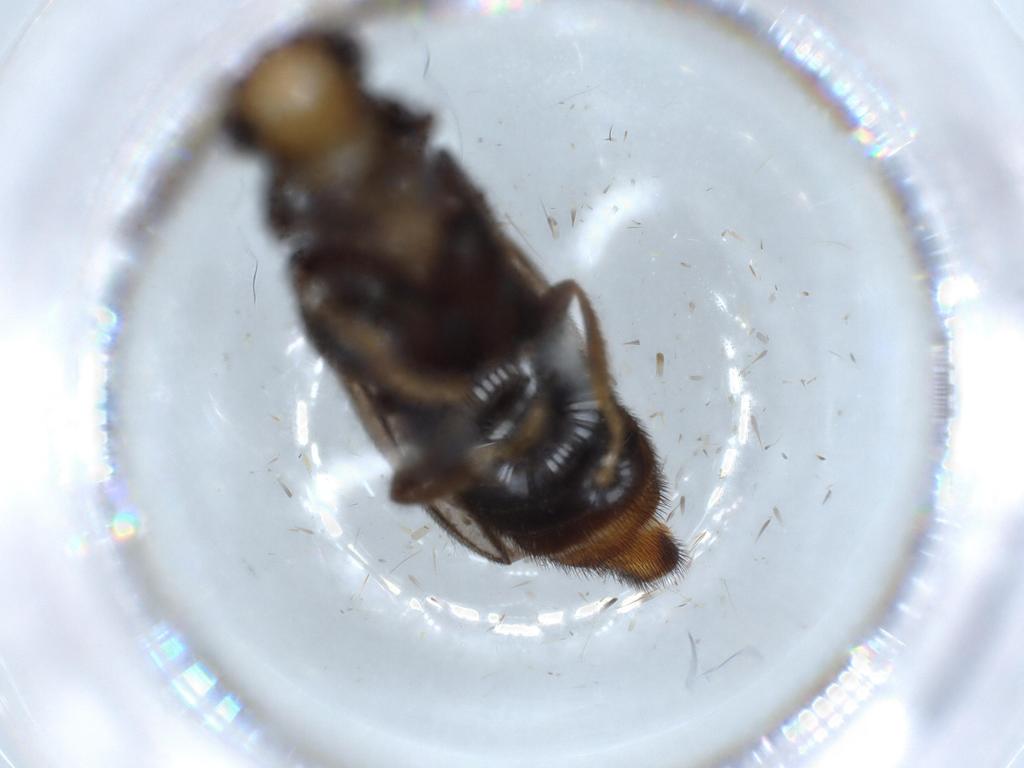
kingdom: Animalia
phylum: Arthropoda
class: Insecta
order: Coleoptera
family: Phengodidae
